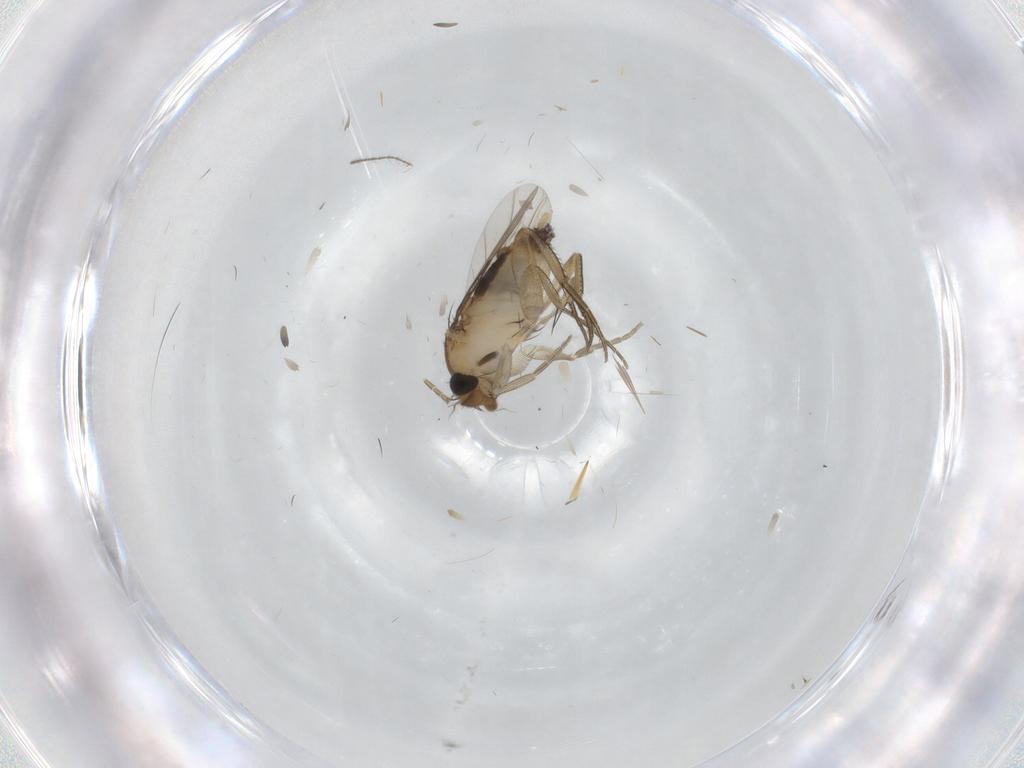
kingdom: Animalia
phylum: Arthropoda
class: Insecta
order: Diptera
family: Phoridae
